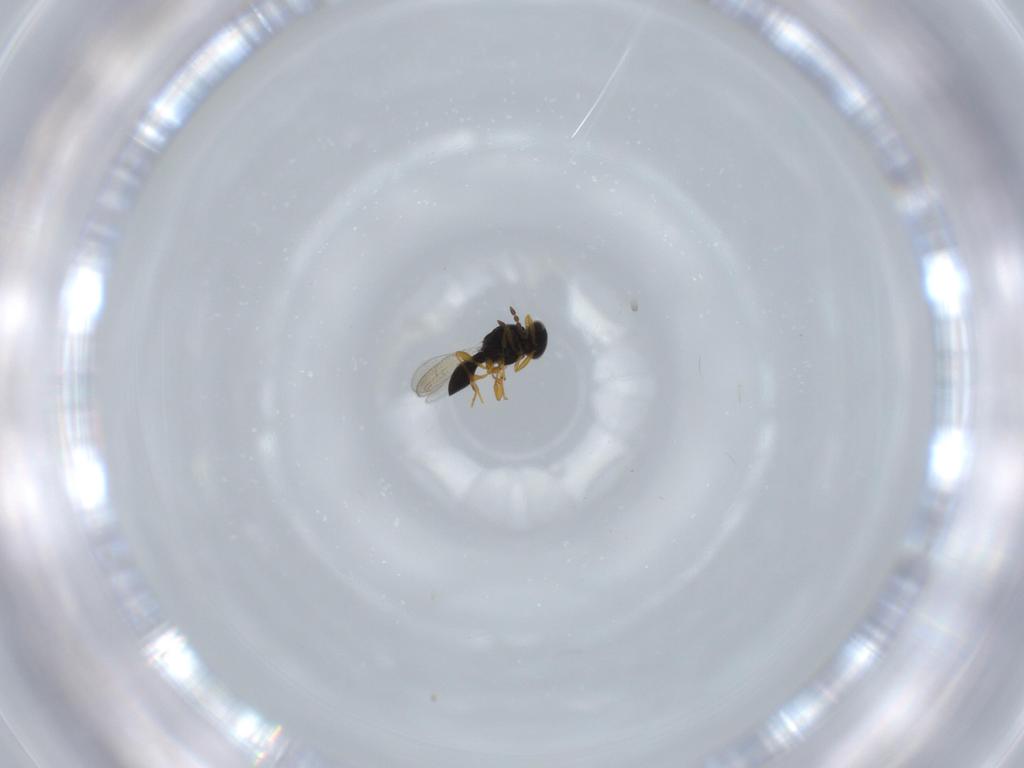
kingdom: Animalia
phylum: Arthropoda
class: Insecta
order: Hymenoptera
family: Platygastridae
